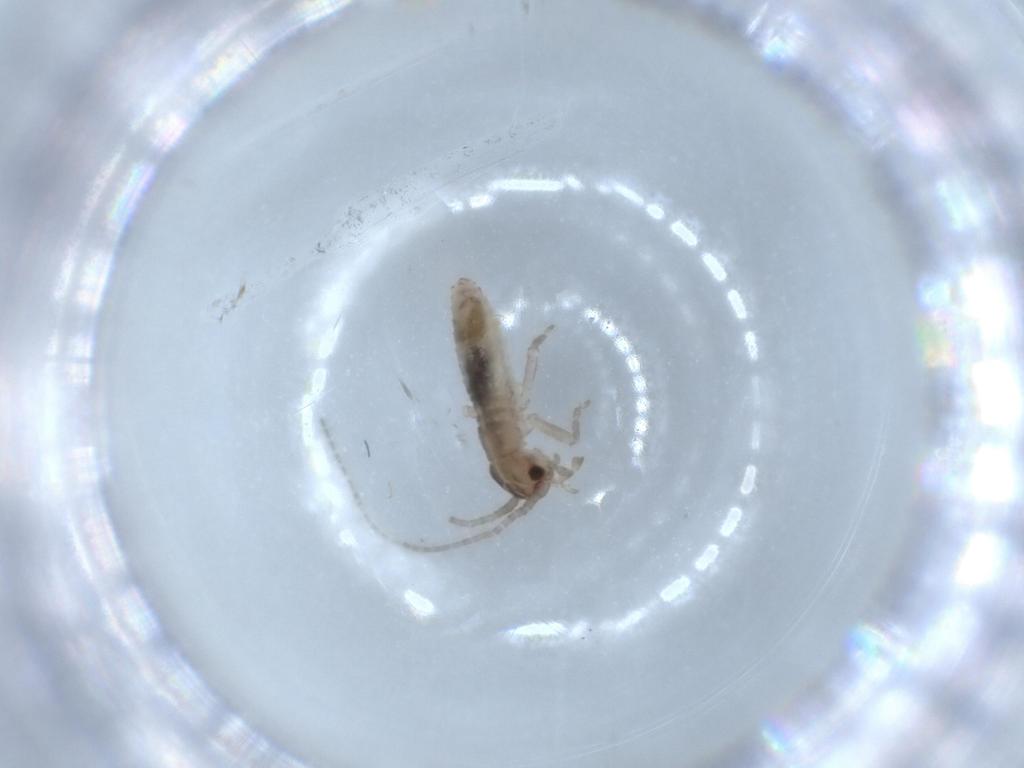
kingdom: Animalia
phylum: Arthropoda
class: Insecta
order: Orthoptera
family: Mogoplistidae
